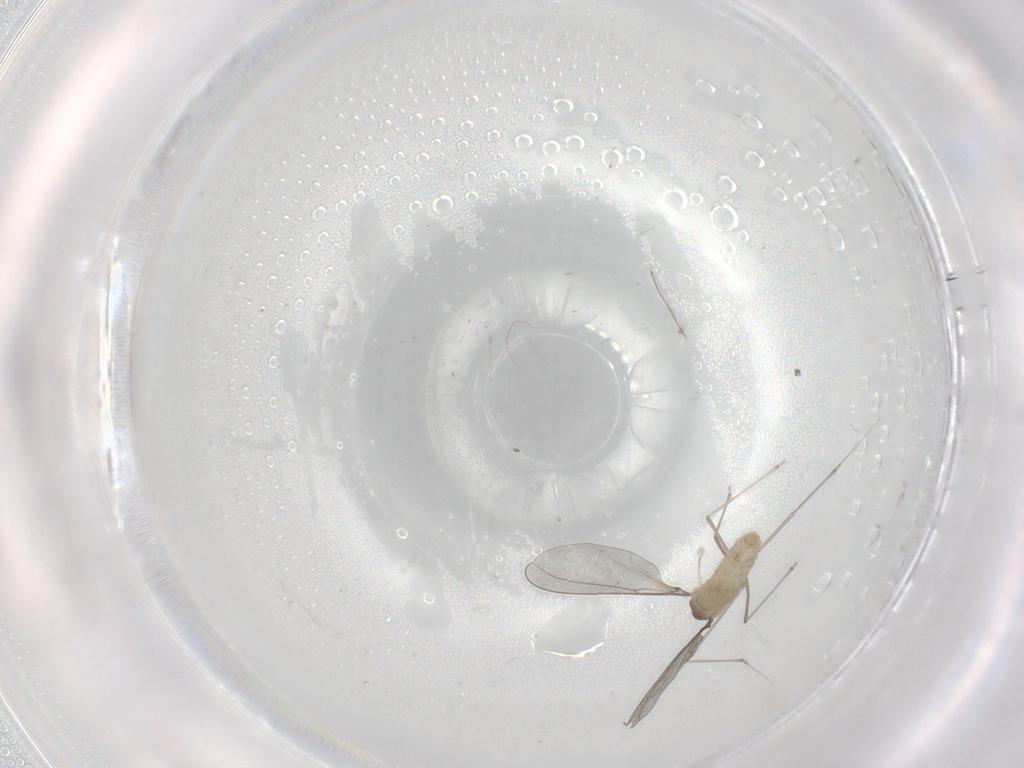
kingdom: Animalia
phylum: Arthropoda
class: Insecta
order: Diptera
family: Cecidomyiidae
